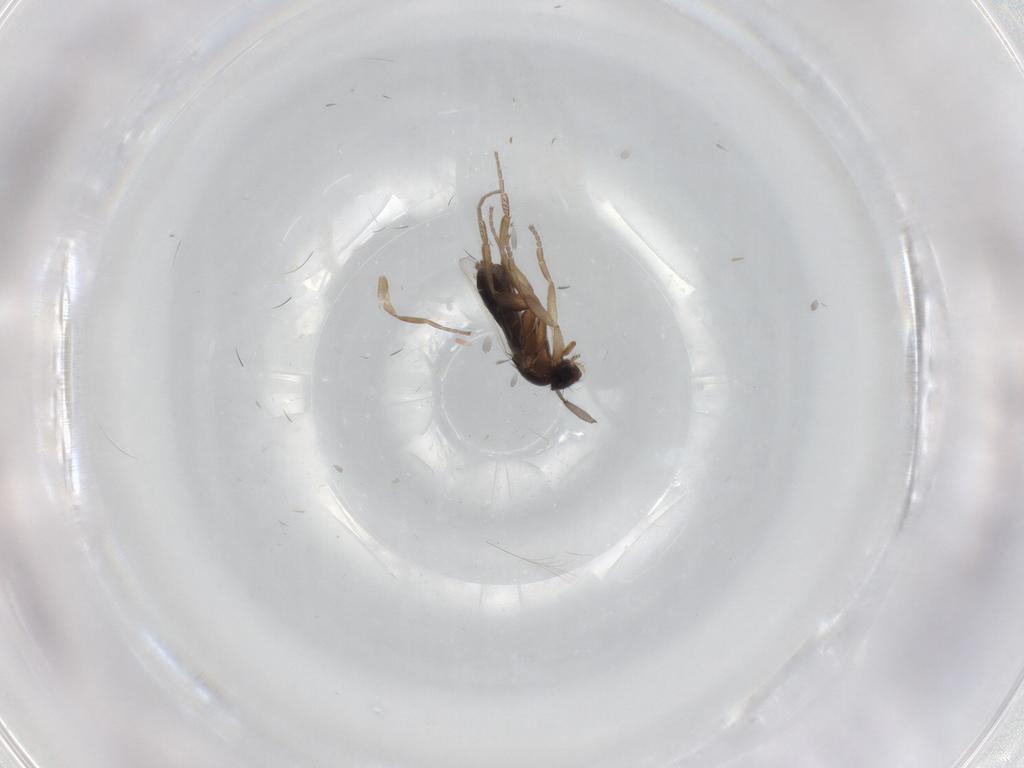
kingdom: Animalia
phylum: Arthropoda
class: Insecta
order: Diptera
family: Phoridae
